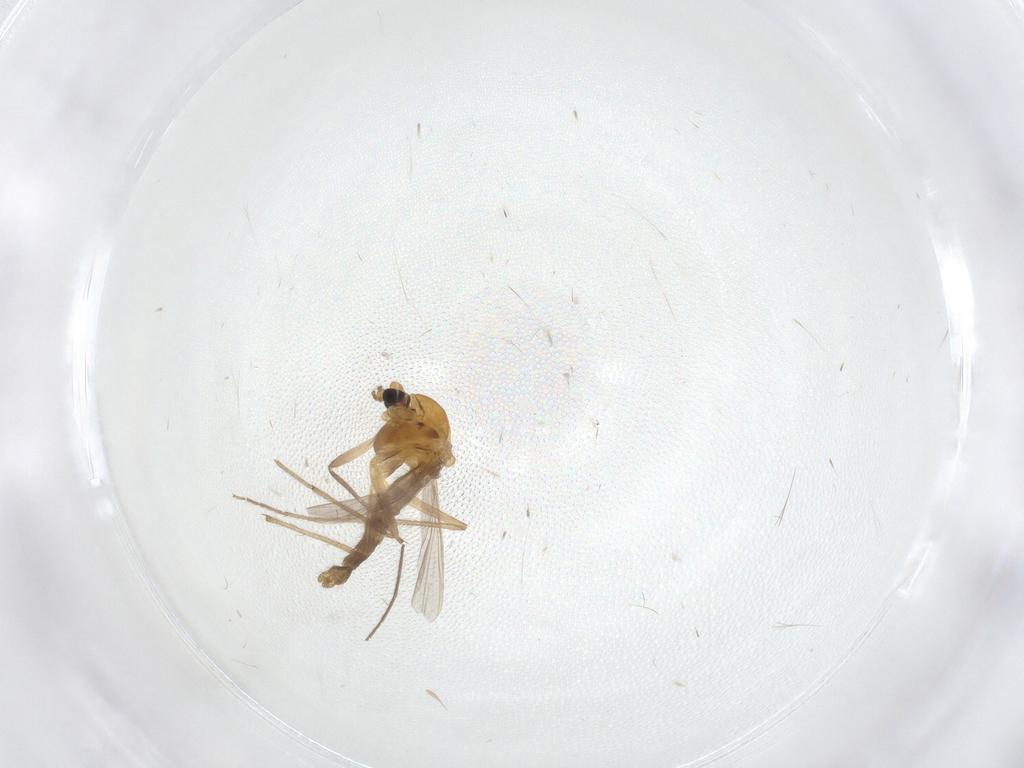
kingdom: Animalia
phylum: Arthropoda
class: Insecta
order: Diptera
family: Chironomidae
